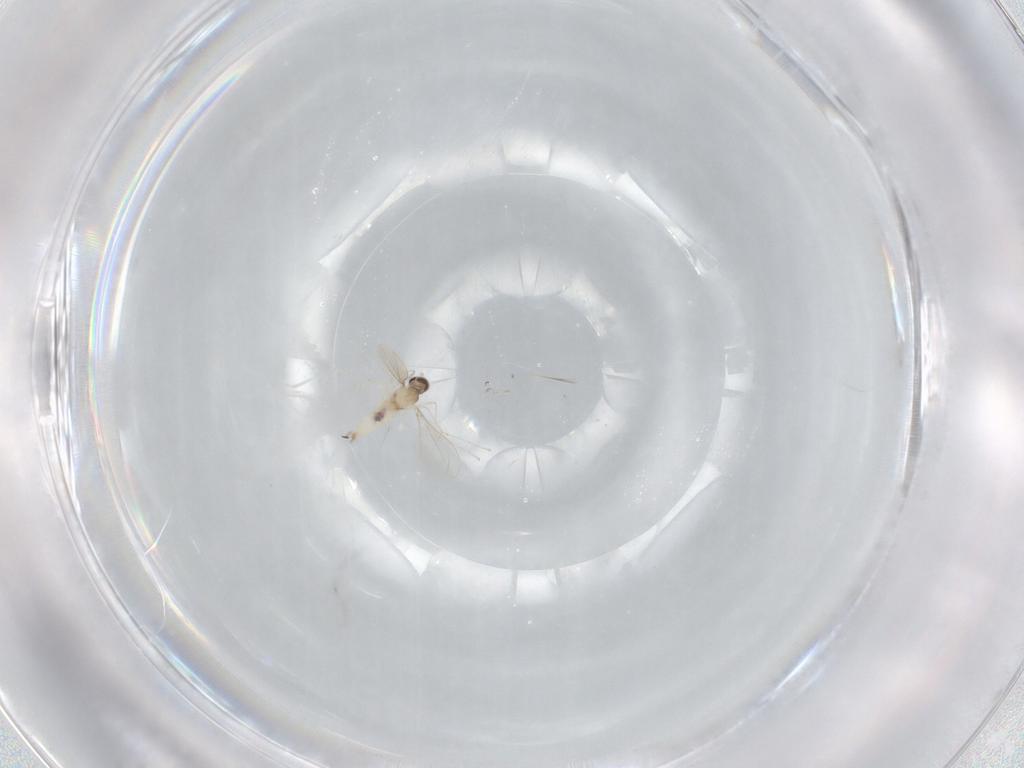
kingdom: Animalia
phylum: Arthropoda
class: Insecta
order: Diptera
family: Cecidomyiidae
